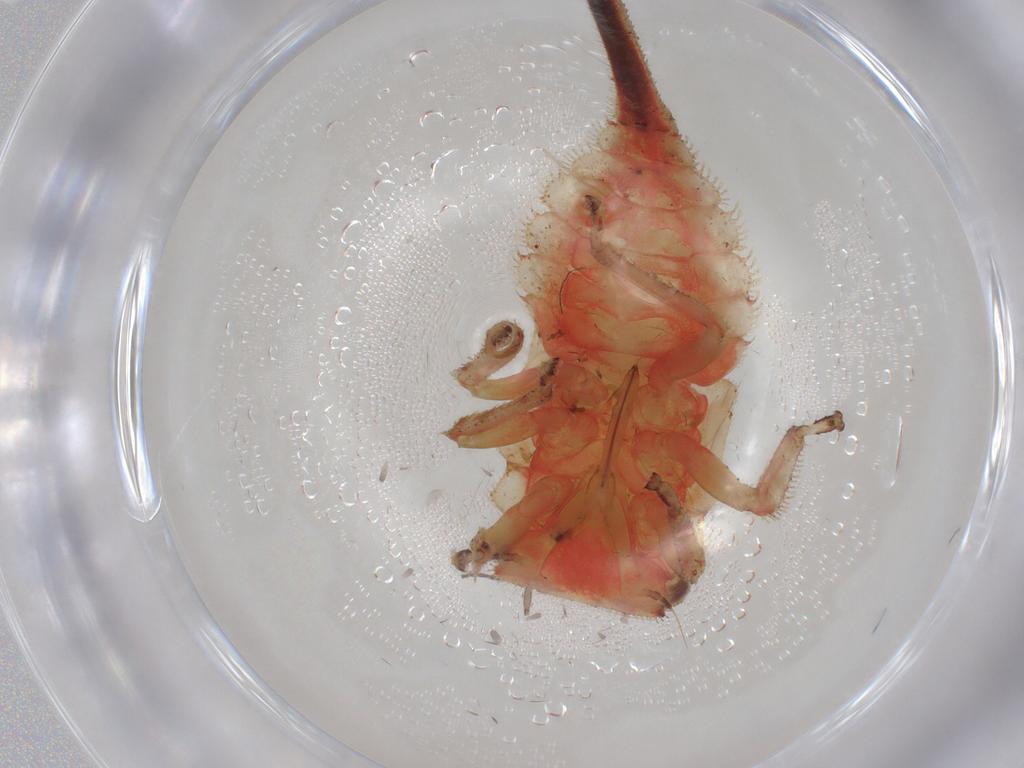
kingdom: Animalia
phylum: Arthropoda
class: Insecta
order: Hemiptera
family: Membracidae
